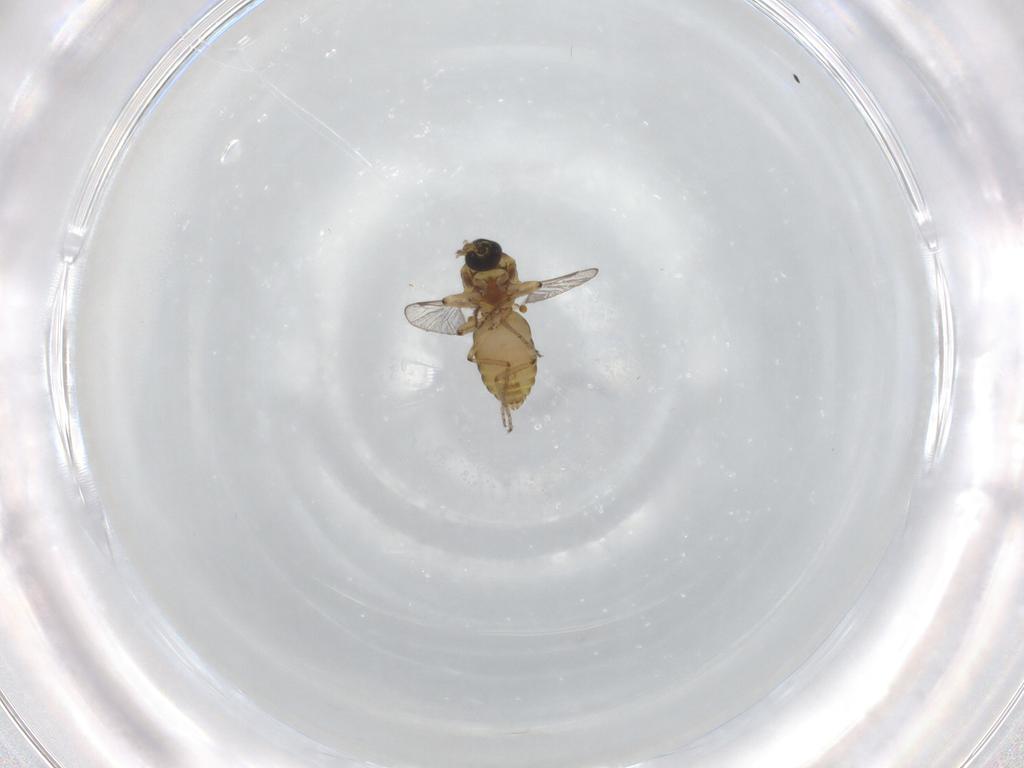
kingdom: Animalia
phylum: Arthropoda
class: Insecta
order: Diptera
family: Ceratopogonidae
